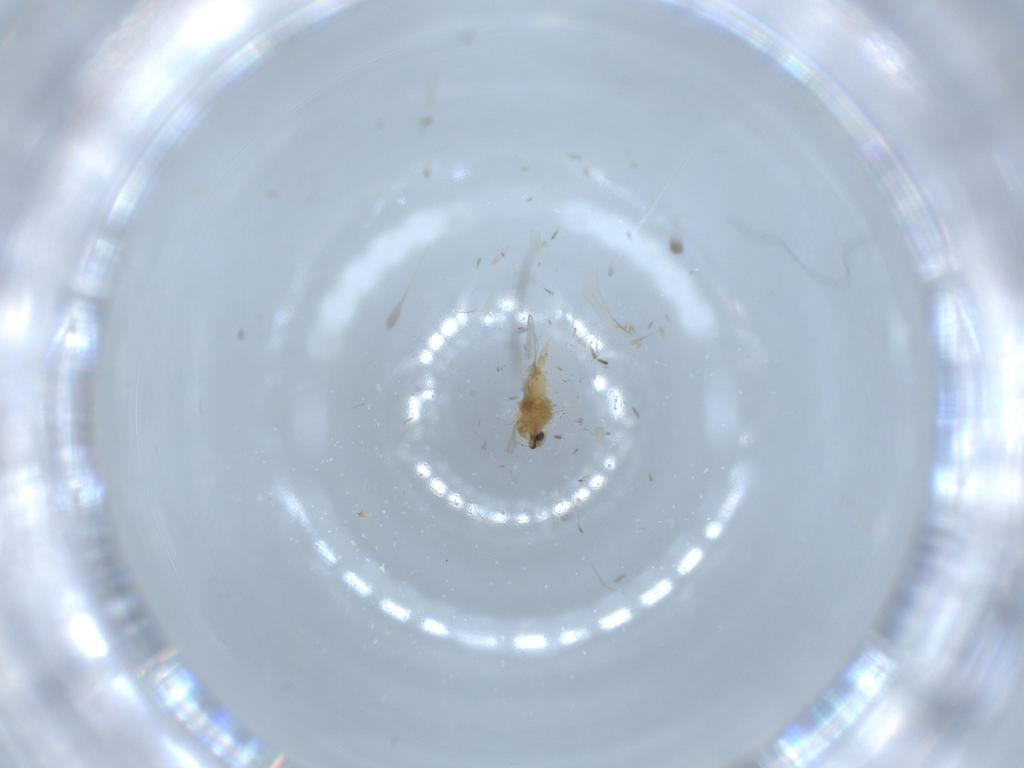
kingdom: Animalia
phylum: Arthropoda
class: Insecta
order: Diptera
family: Cecidomyiidae
